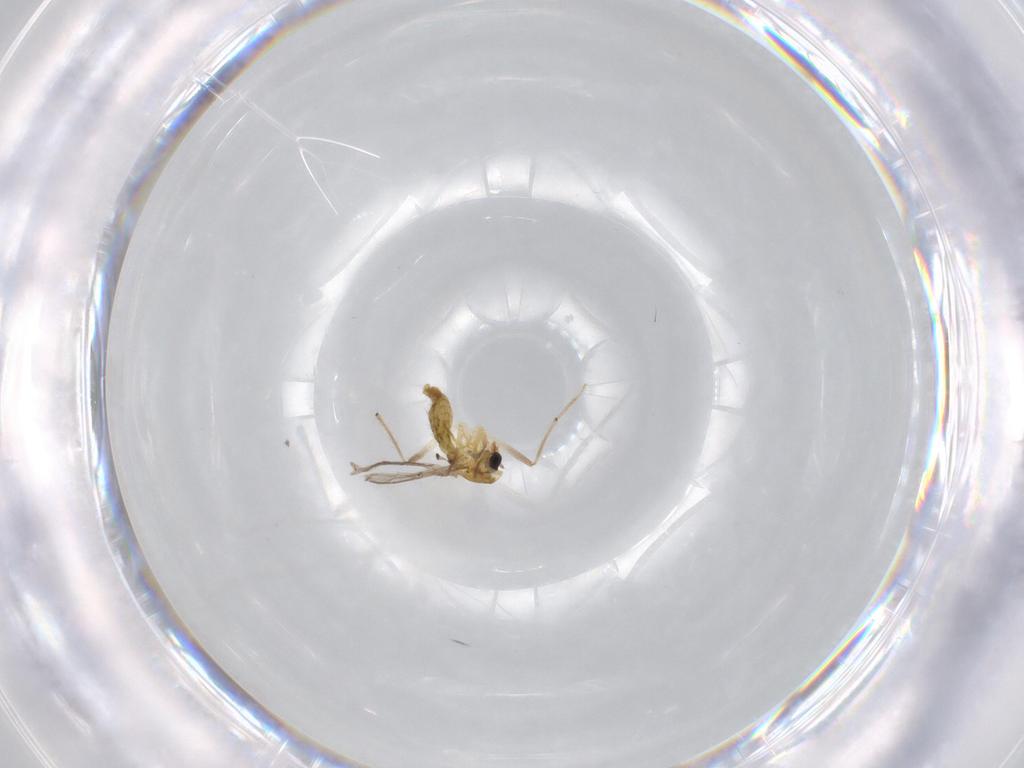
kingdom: Animalia
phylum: Arthropoda
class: Insecta
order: Diptera
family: Chironomidae
